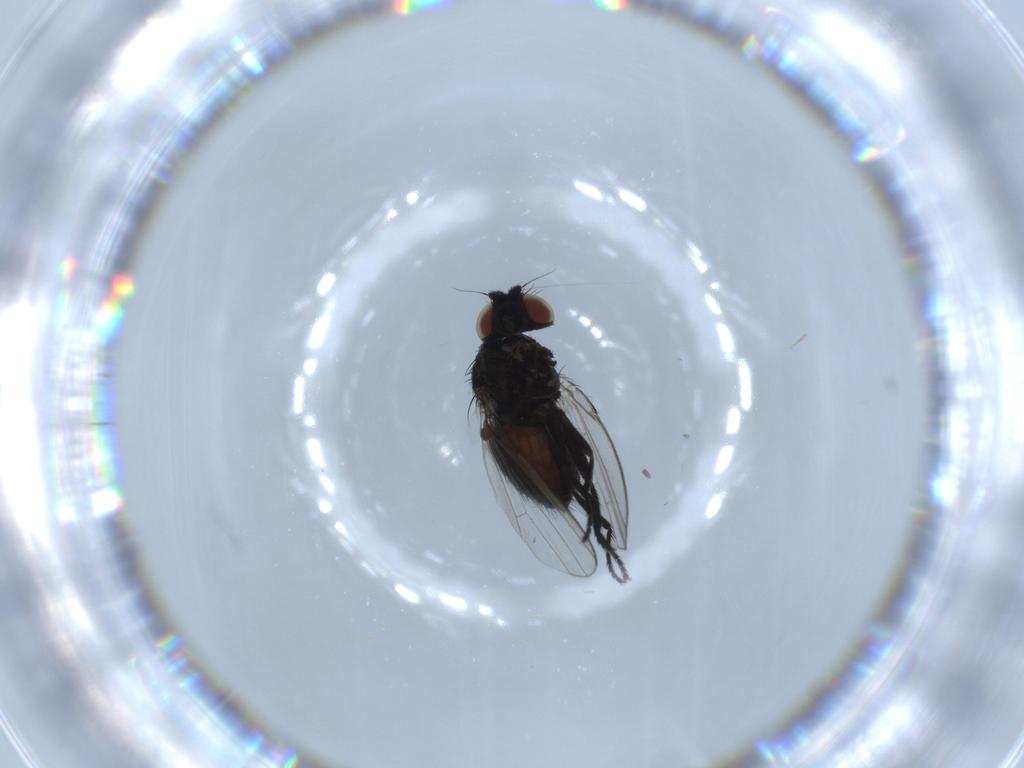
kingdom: Animalia
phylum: Arthropoda
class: Insecta
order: Diptera
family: Milichiidae
